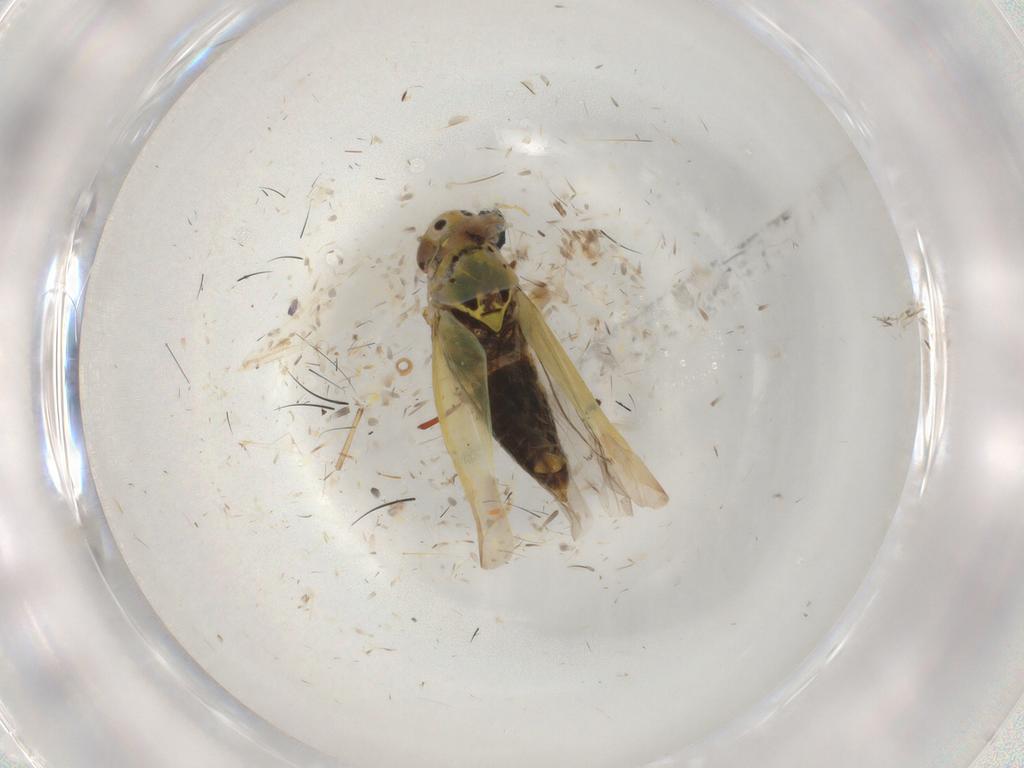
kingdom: Animalia
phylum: Arthropoda
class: Insecta
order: Hemiptera
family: Cicadellidae
